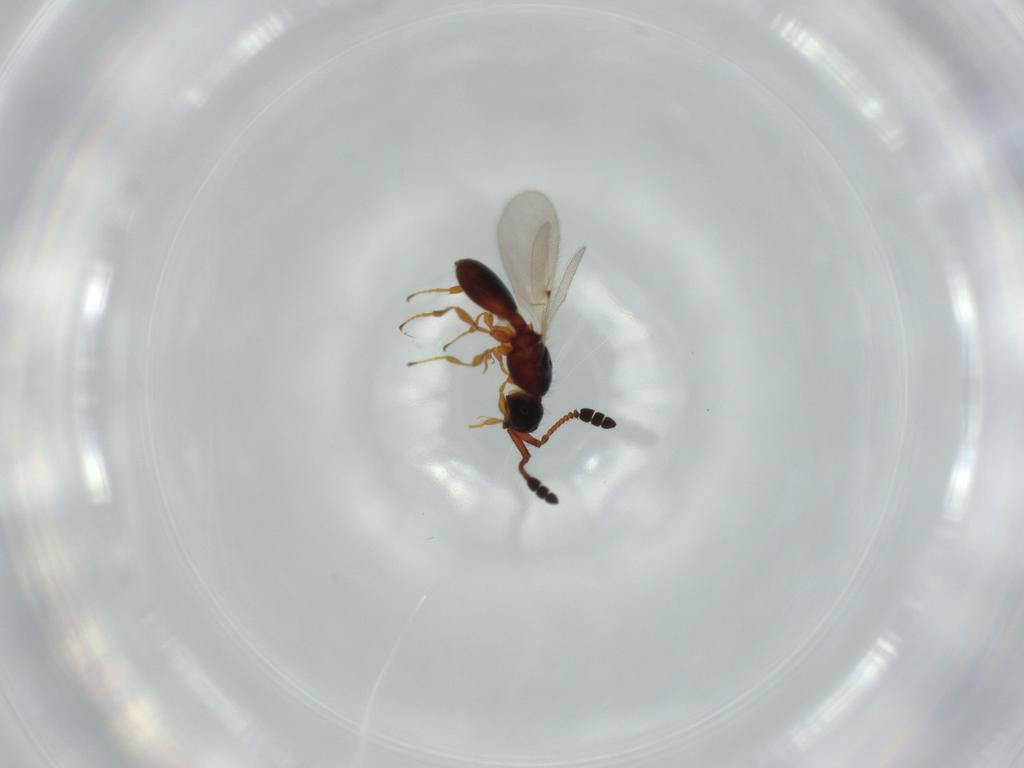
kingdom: Animalia
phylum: Arthropoda
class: Insecta
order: Hymenoptera
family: Diapriidae
